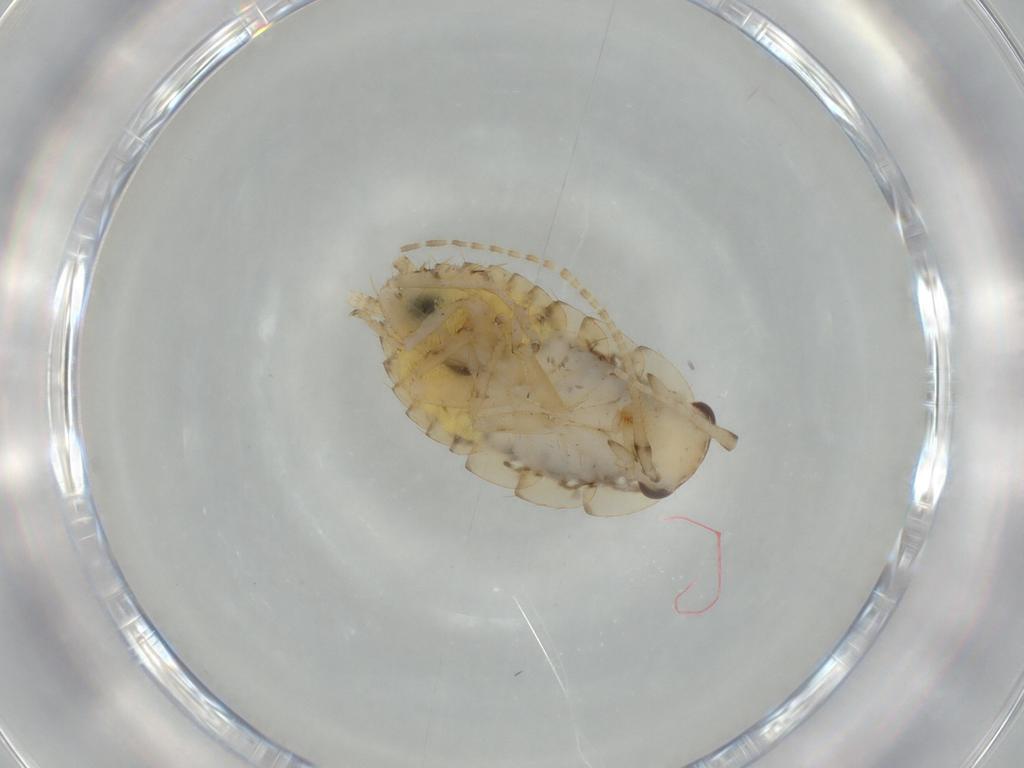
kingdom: Animalia
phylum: Arthropoda
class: Insecta
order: Blattodea
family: Ectobiidae
